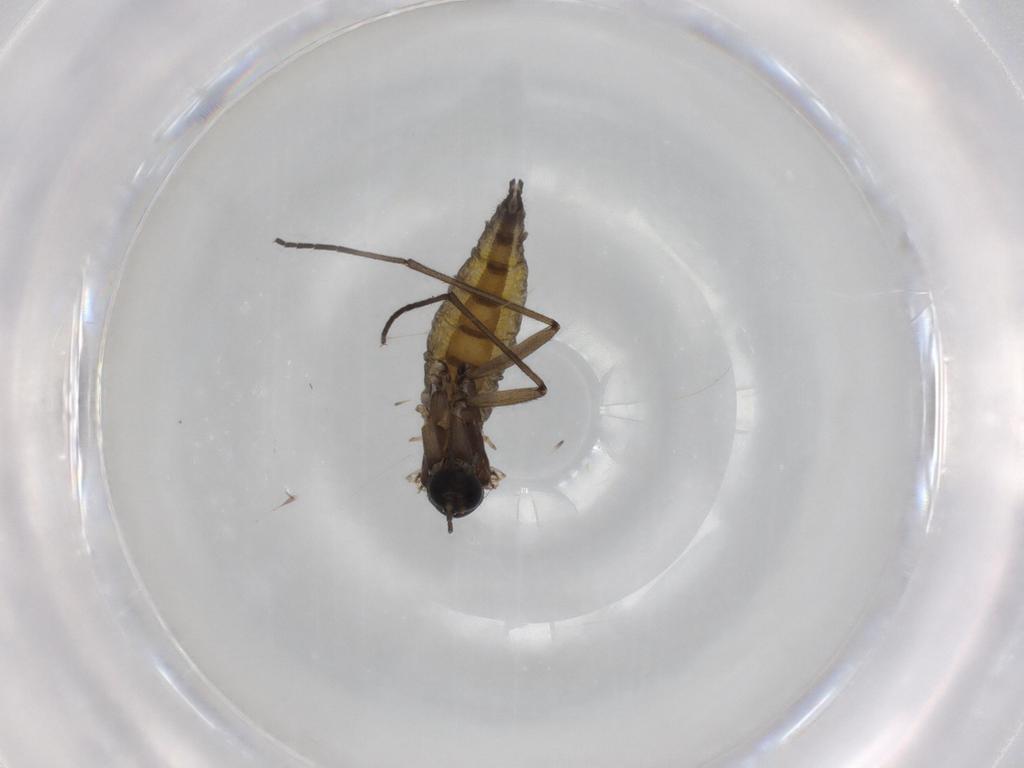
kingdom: Animalia
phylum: Arthropoda
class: Insecta
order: Diptera
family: Sciaridae
